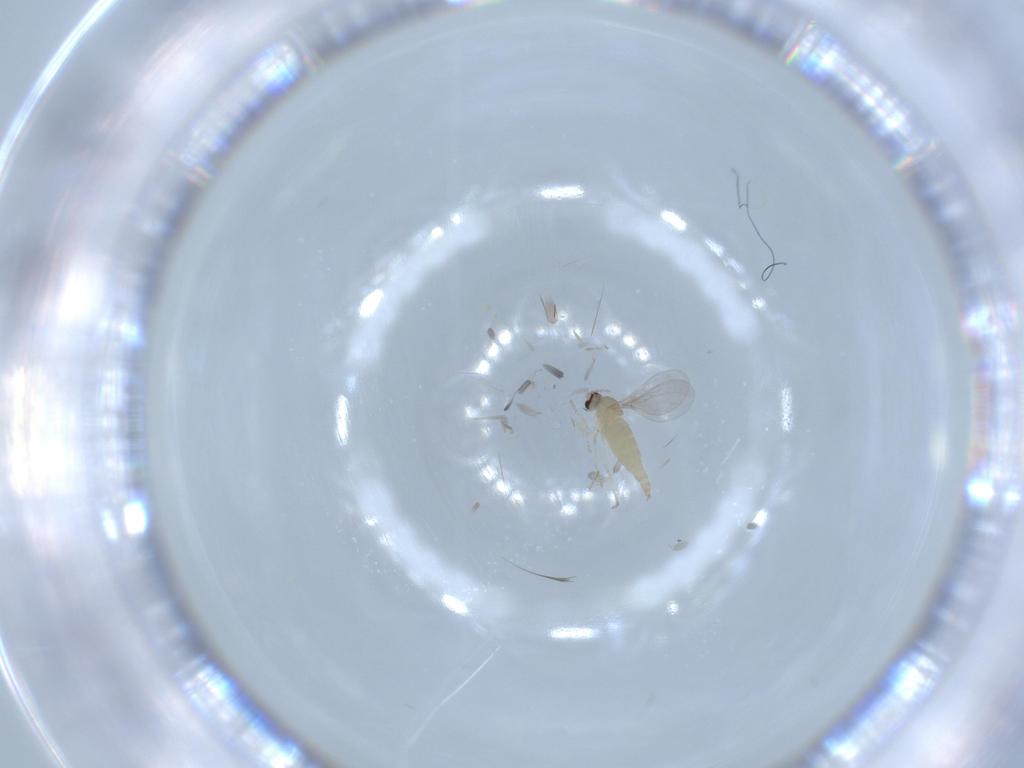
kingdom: Animalia
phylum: Arthropoda
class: Insecta
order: Diptera
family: Cecidomyiidae
